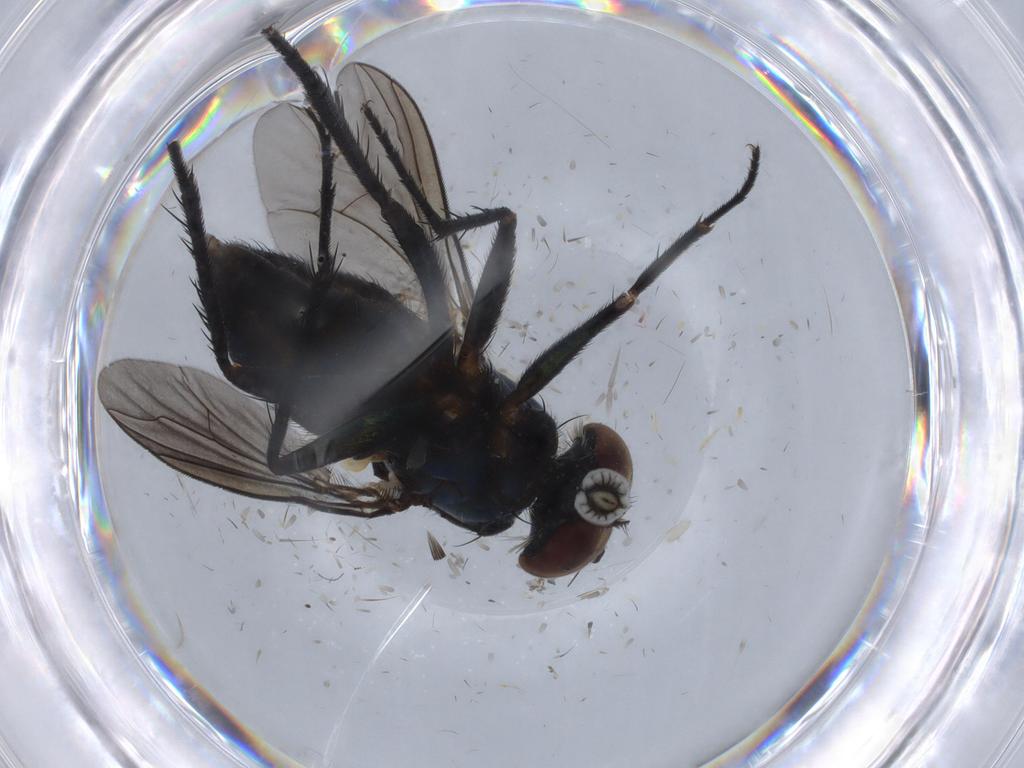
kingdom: Animalia
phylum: Arthropoda
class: Insecta
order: Diptera
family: Dolichopodidae
